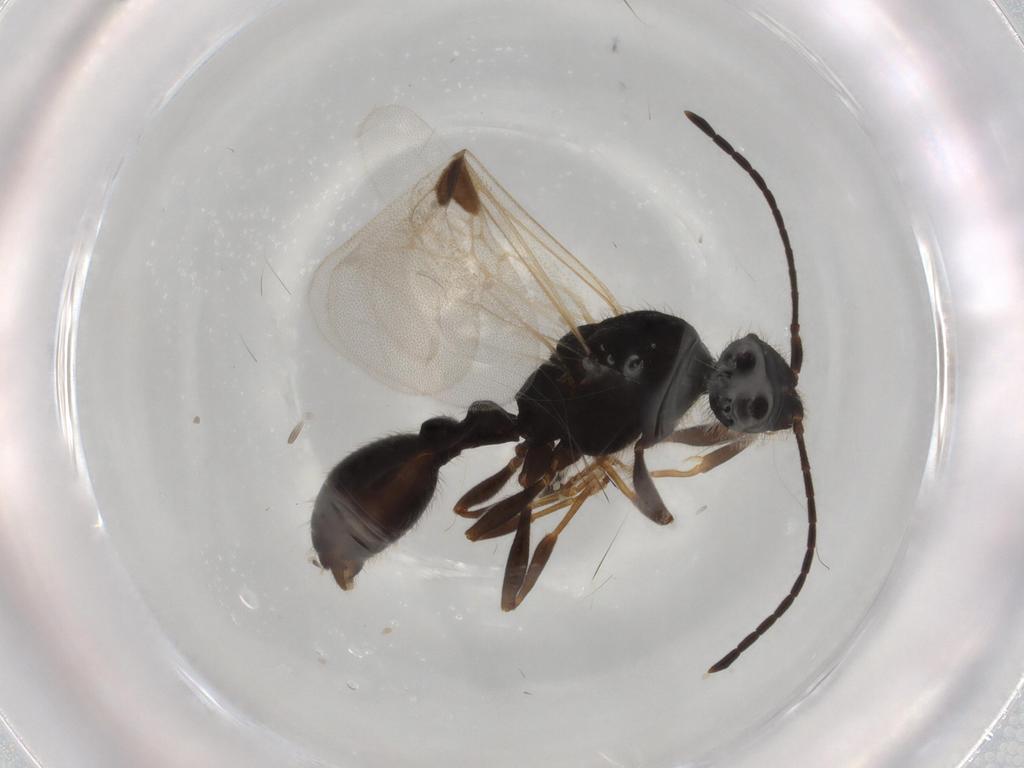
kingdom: Animalia
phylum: Arthropoda
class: Insecta
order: Hymenoptera
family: Formicidae
